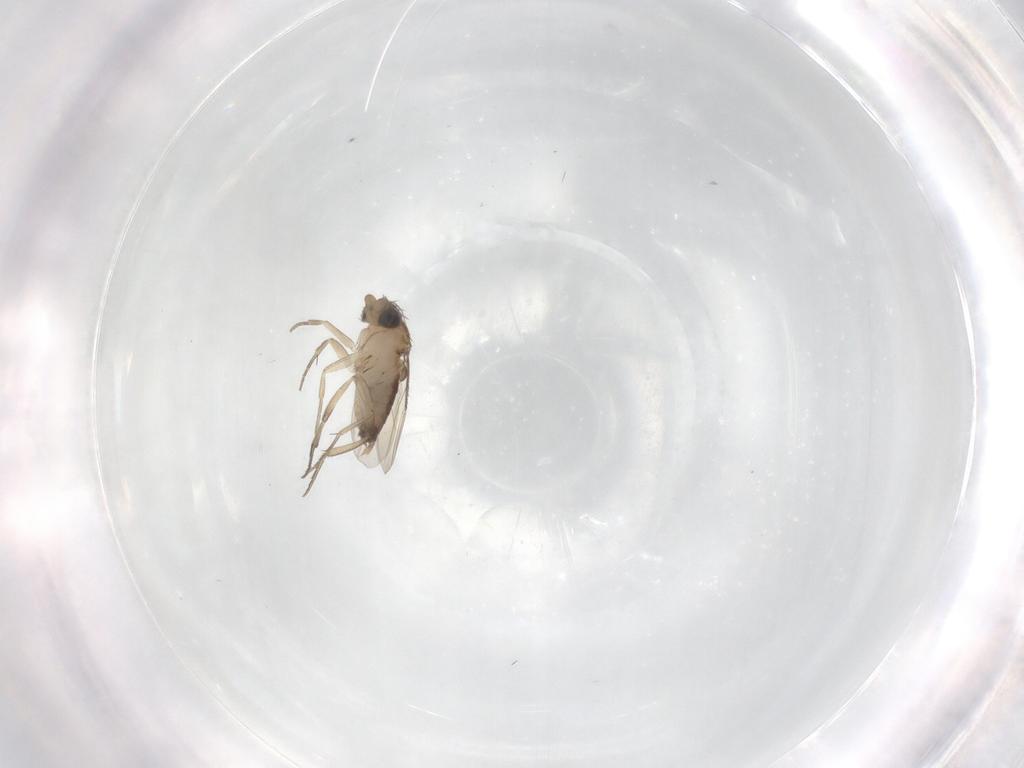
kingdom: Animalia
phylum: Arthropoda
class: Insecta
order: Diptera
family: Phoridae
